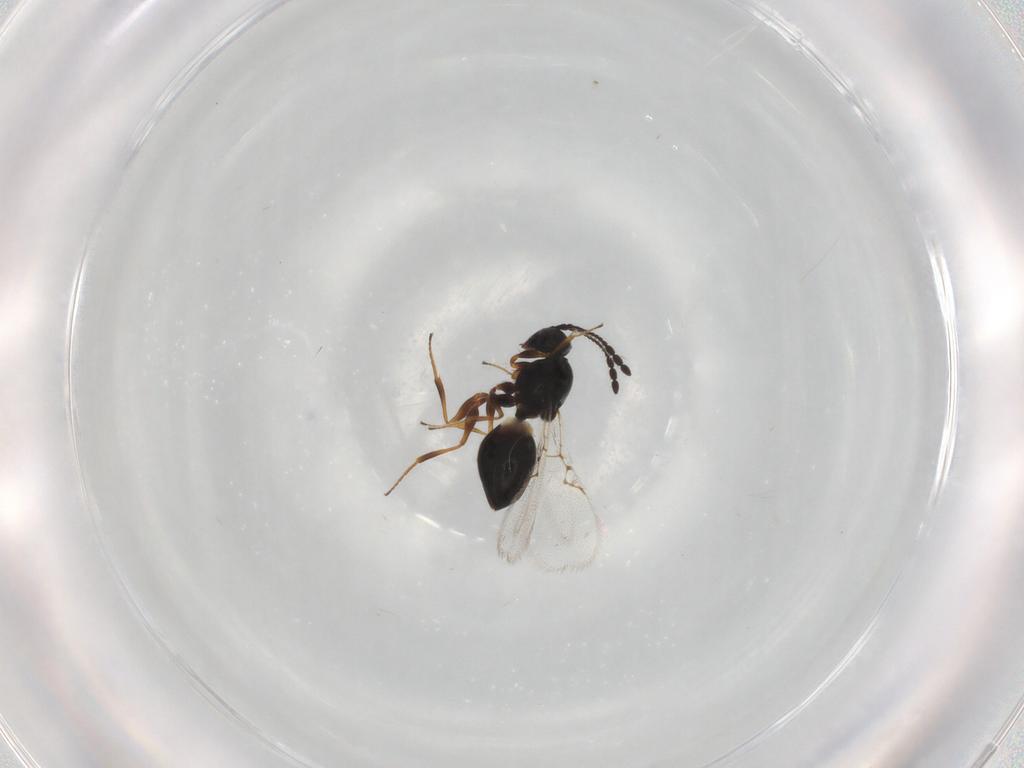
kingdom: Animalia
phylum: Arthropoda
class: Insecta
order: Hymenoptera
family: Figitidae
